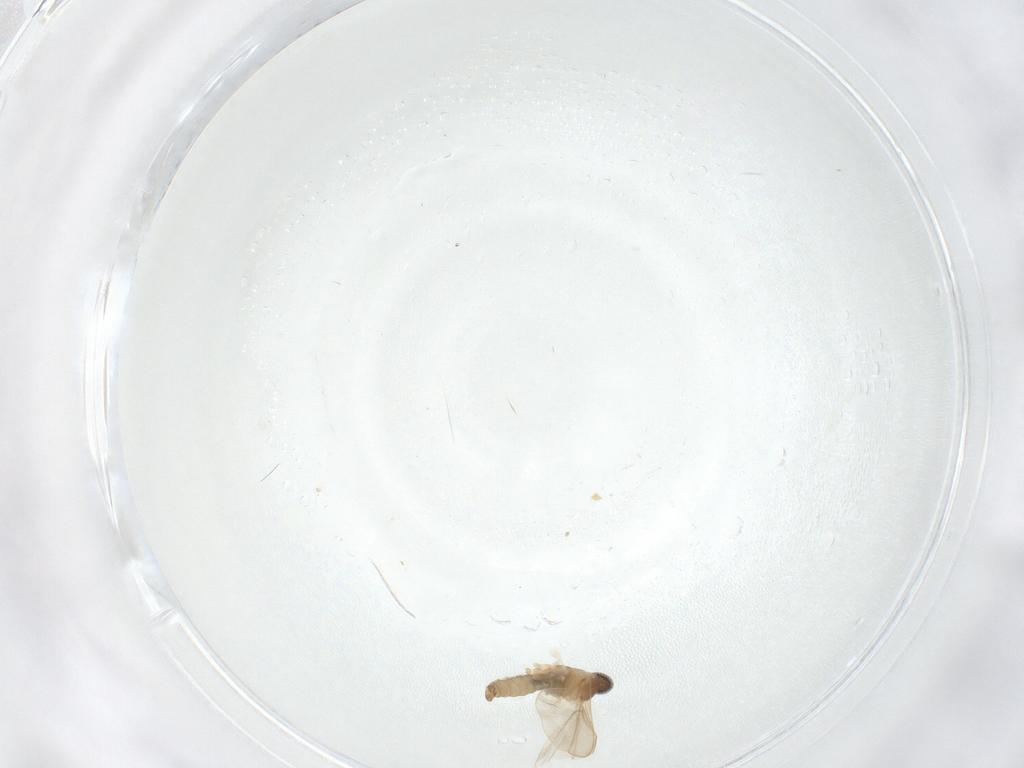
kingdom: Animalia
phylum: Arthropoda
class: Insecta
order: Diptera
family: Cecidomyiidae
